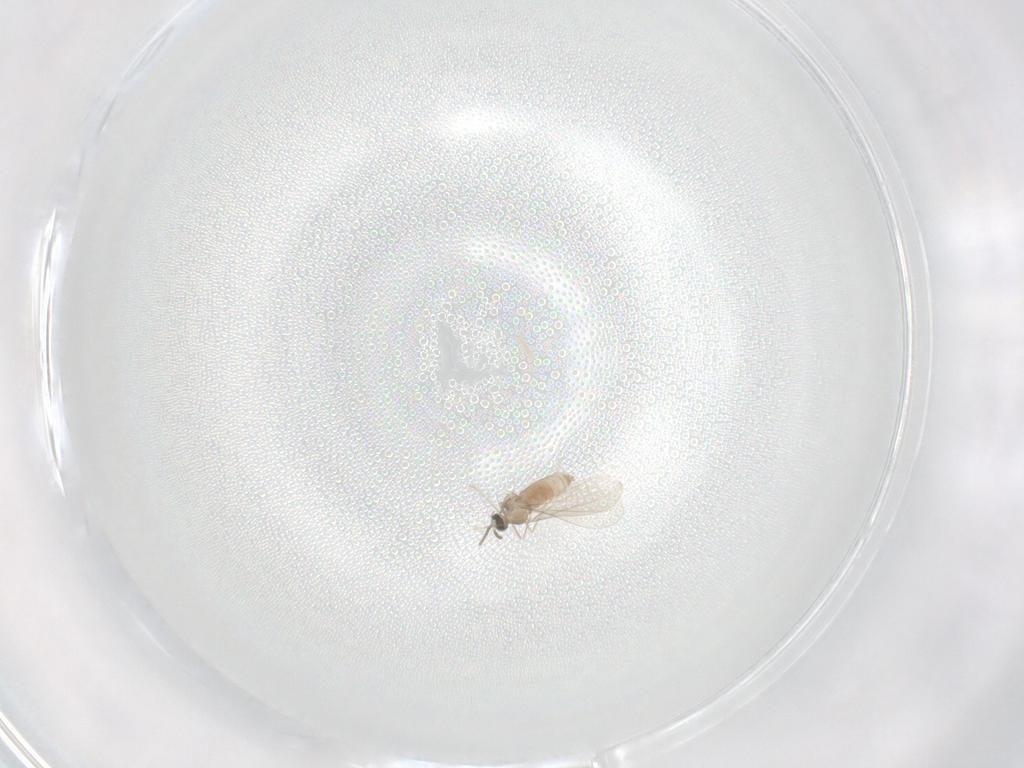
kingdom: Animalia
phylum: Arthropoda
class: Insecta
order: Diptera
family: Cecidomyiidae
